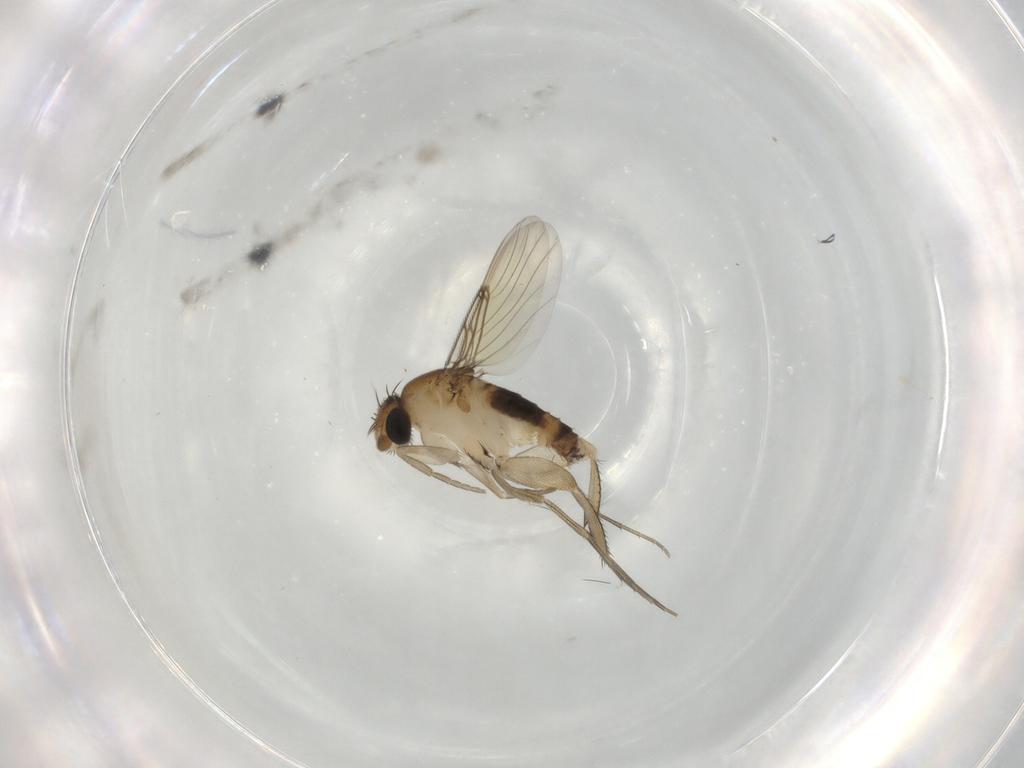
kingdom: Animalia
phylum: Arthropoda
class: Insecta
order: Diptera
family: Phoridae
